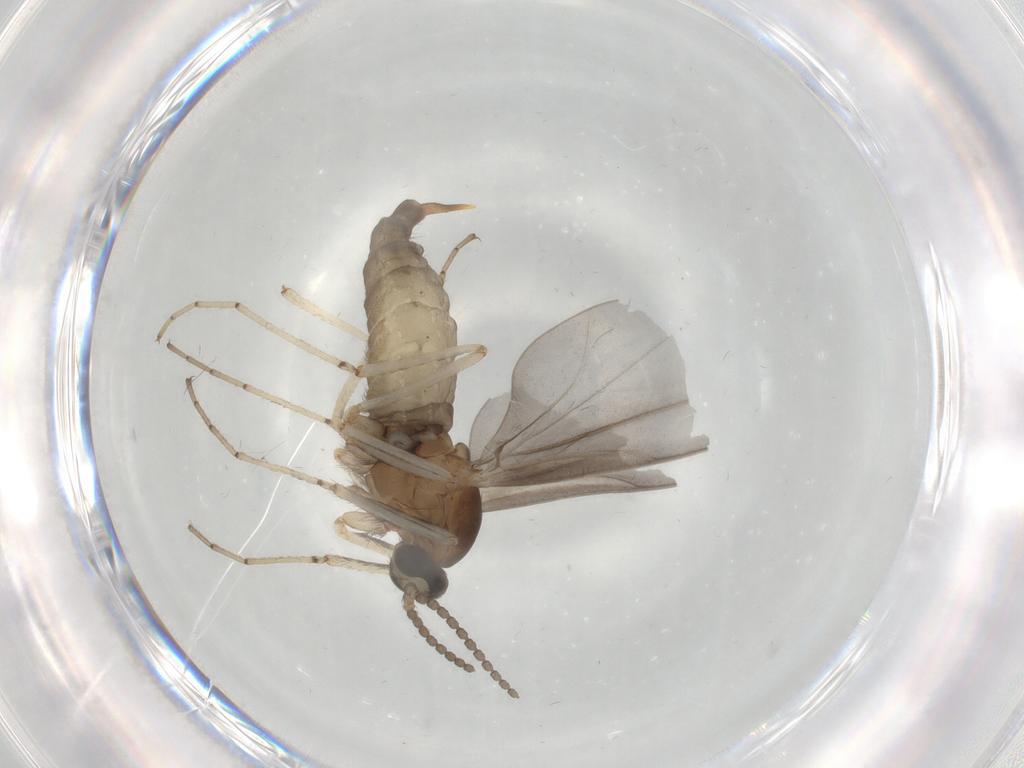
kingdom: Animalia
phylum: Arthropoda
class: Insecta
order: Diptera
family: Cecidomyiidae
